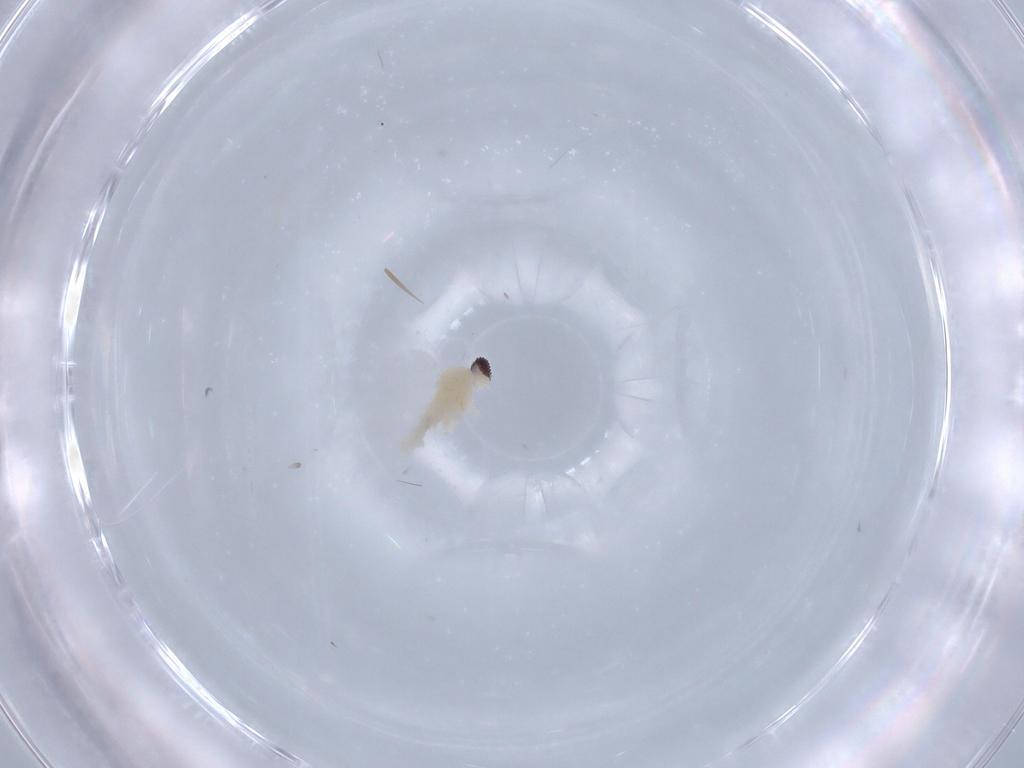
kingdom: Animalia
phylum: Arthropoda
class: Insecta
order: Diptera
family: Cecidomyiidae
